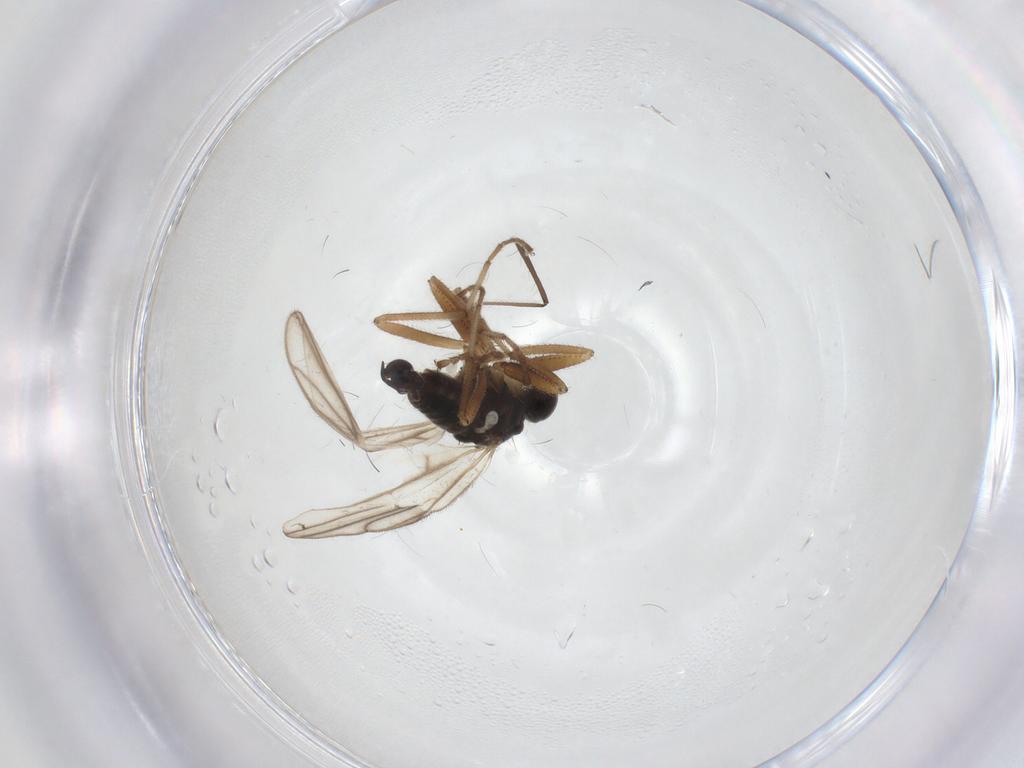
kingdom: Animalia
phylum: Arthropoda
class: Insecta
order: Diptera
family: Hybotidae
